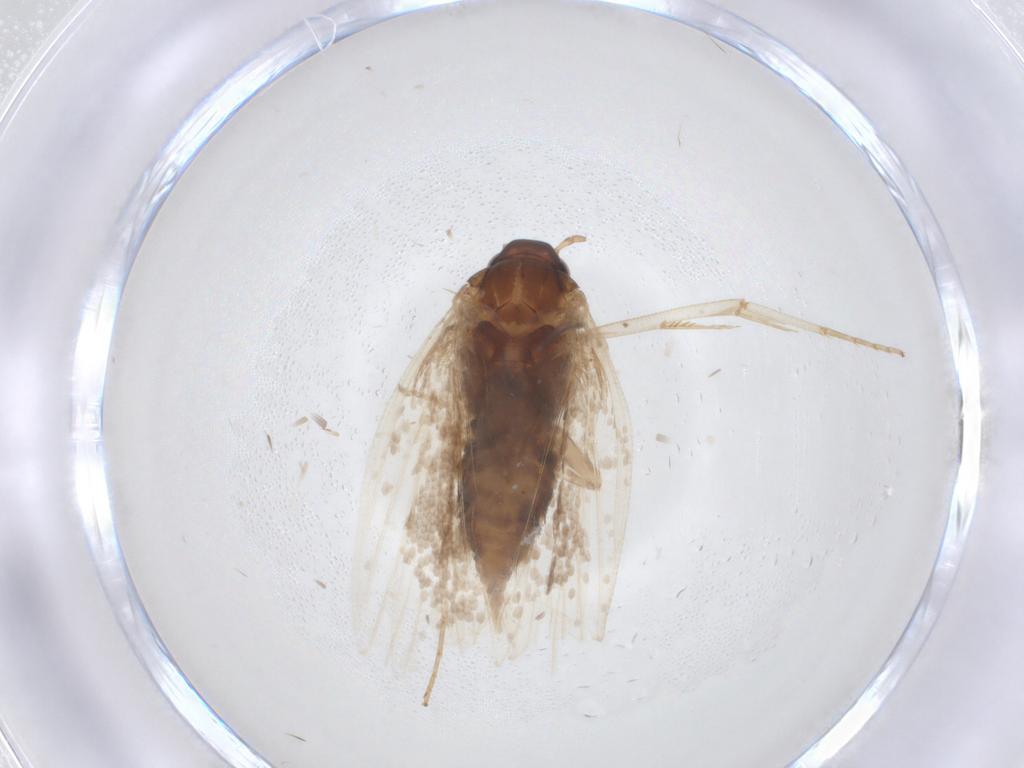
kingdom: Animalia
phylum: Arthropoda
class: Insecta
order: Lepidoptera
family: Oecophoridae
